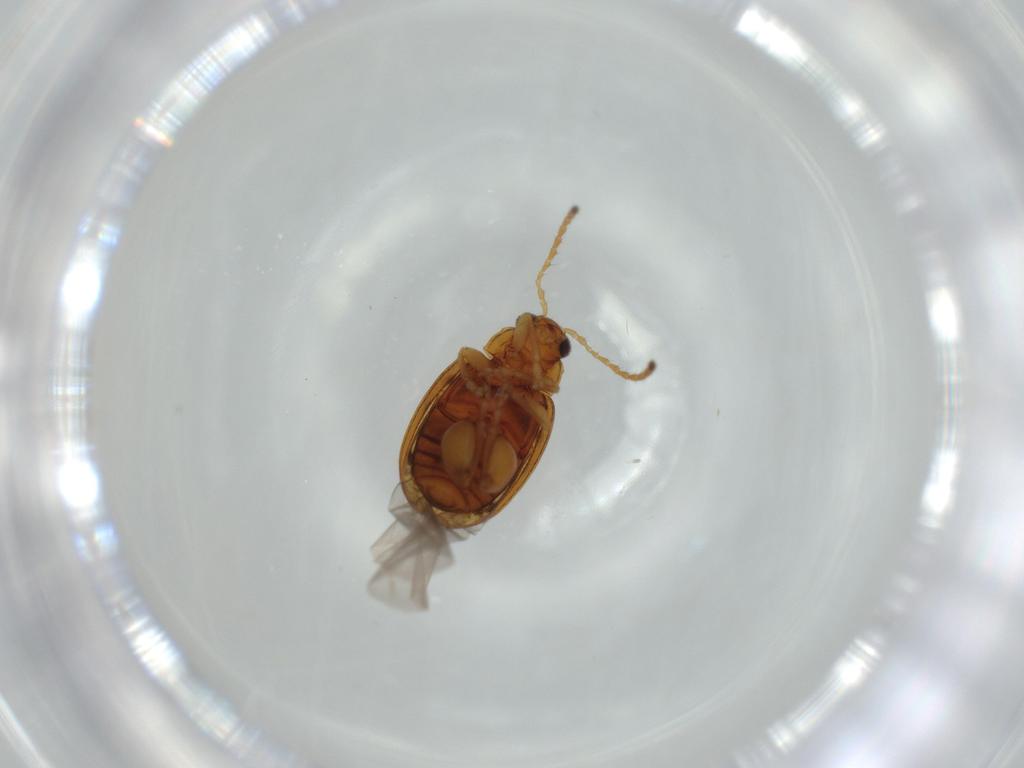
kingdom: Animalia
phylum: Arthropoda
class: Insecta
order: Coleoptera
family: Chrysomelidae
